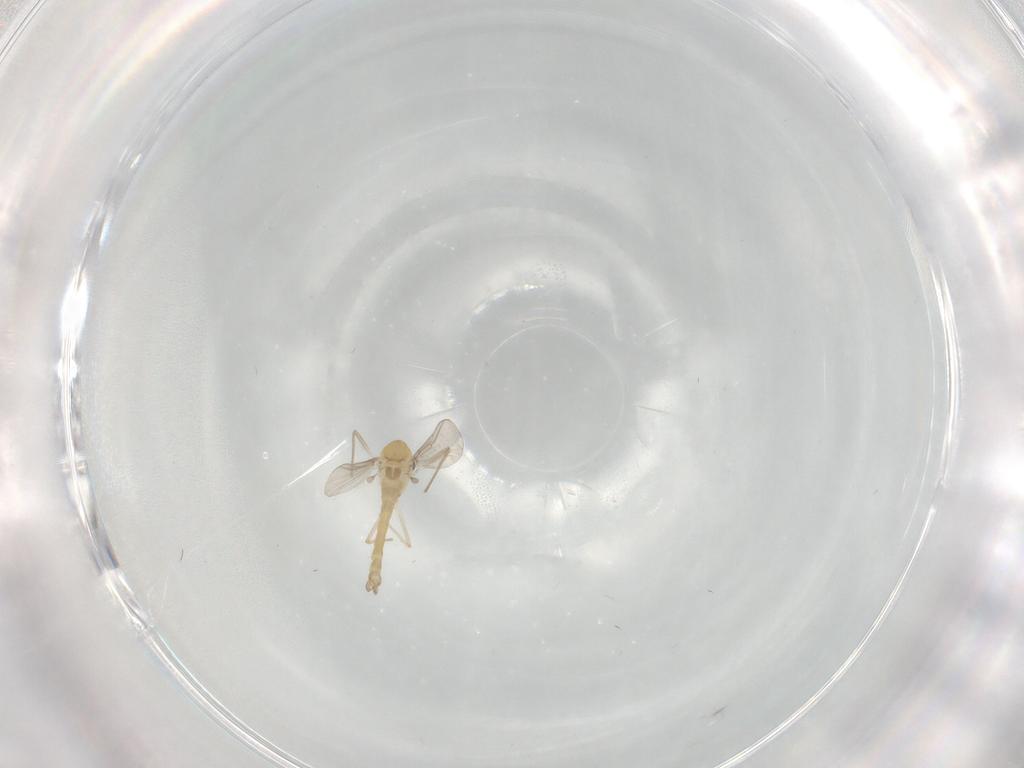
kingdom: Animalia
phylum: Arthropoda
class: Insecta
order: Diptera
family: Chironomidae
